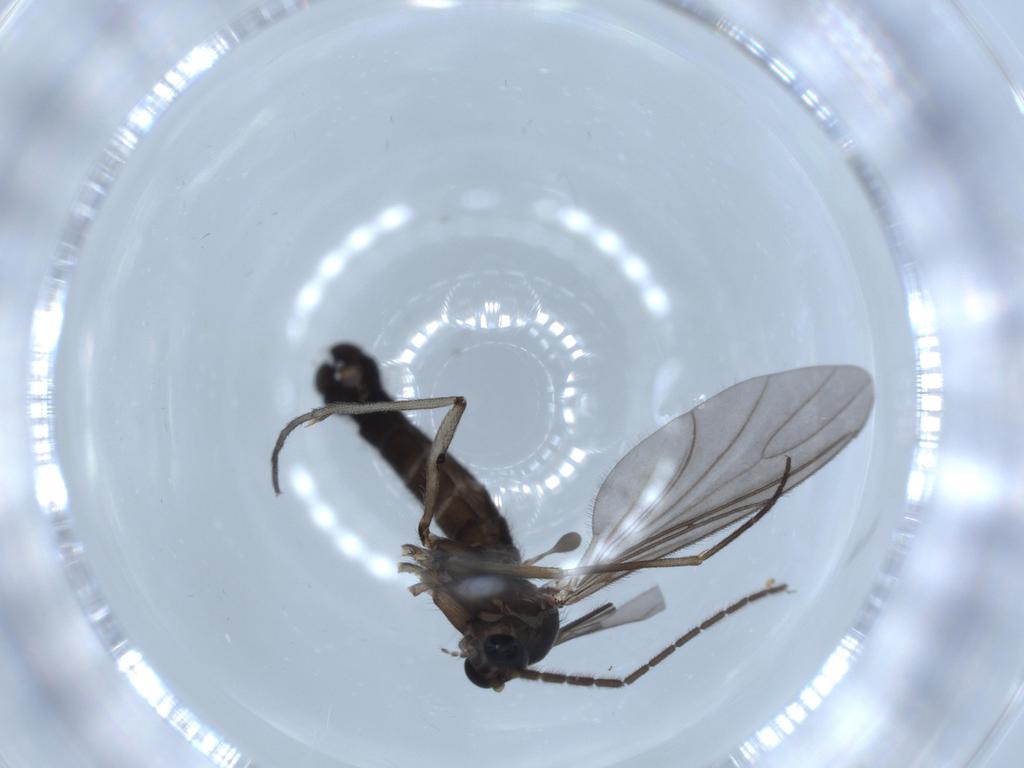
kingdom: Animalia
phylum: Arthropoda
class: Insecta
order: Diptera
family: Sciaridae
